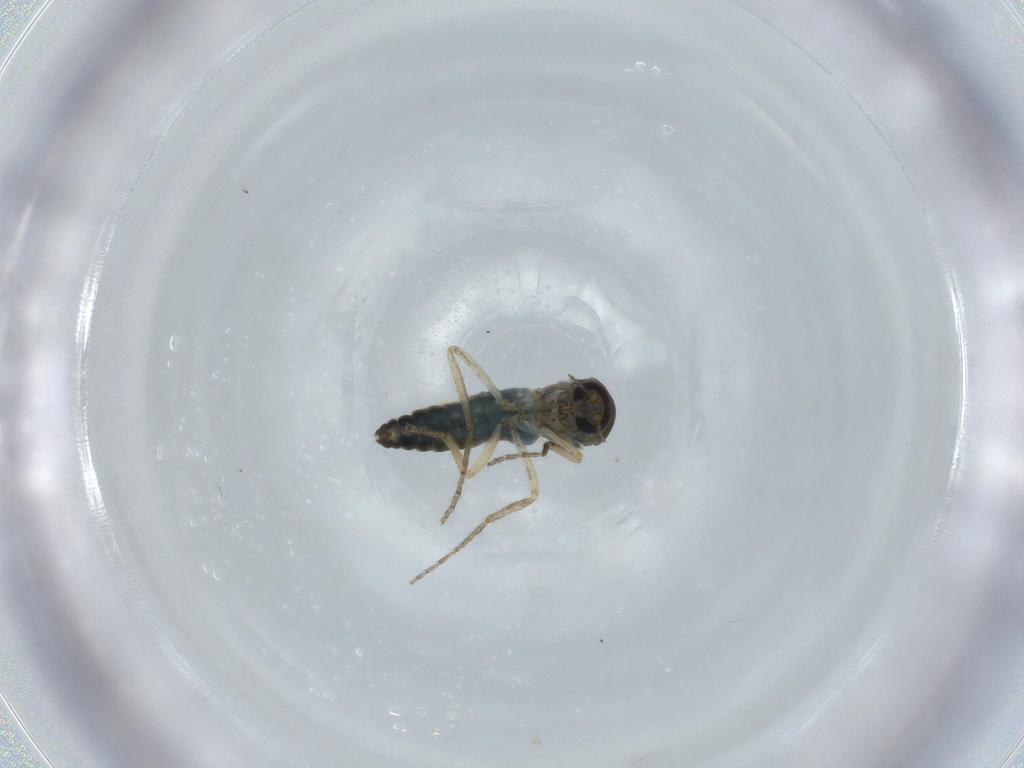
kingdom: Animalia
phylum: Arthropoda
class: Insecta
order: Diptera
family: Ceratopogonidae
